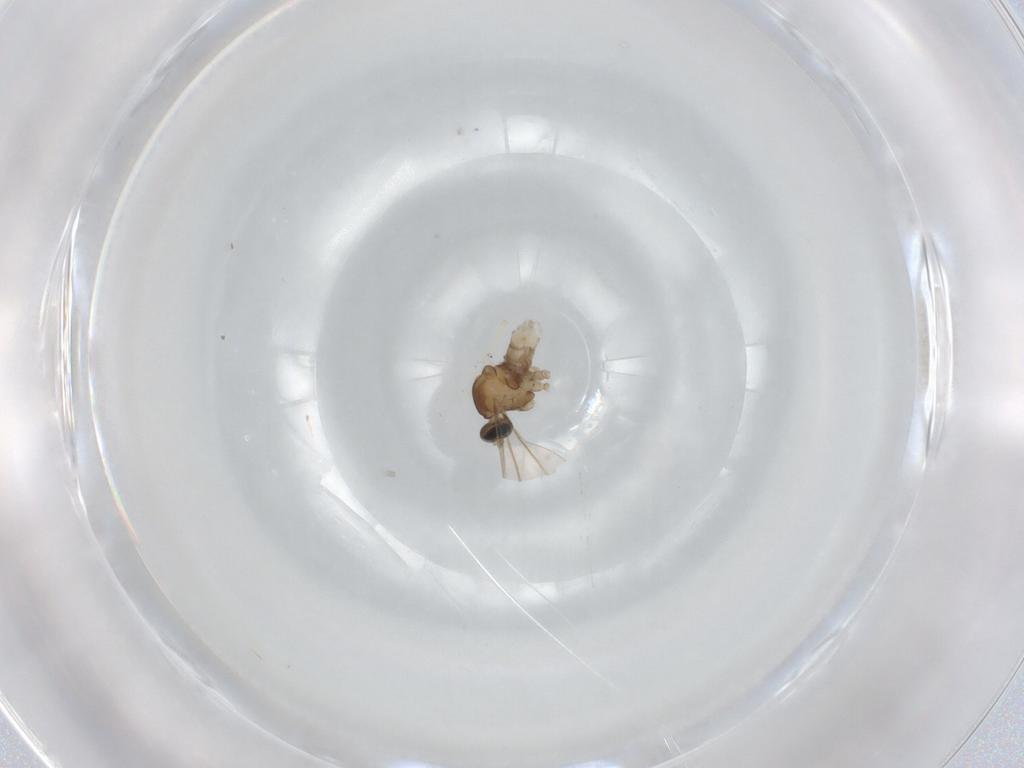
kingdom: Animalia
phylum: Arthropoda
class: Insecta
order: Diptera
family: Cecidomyiidae
